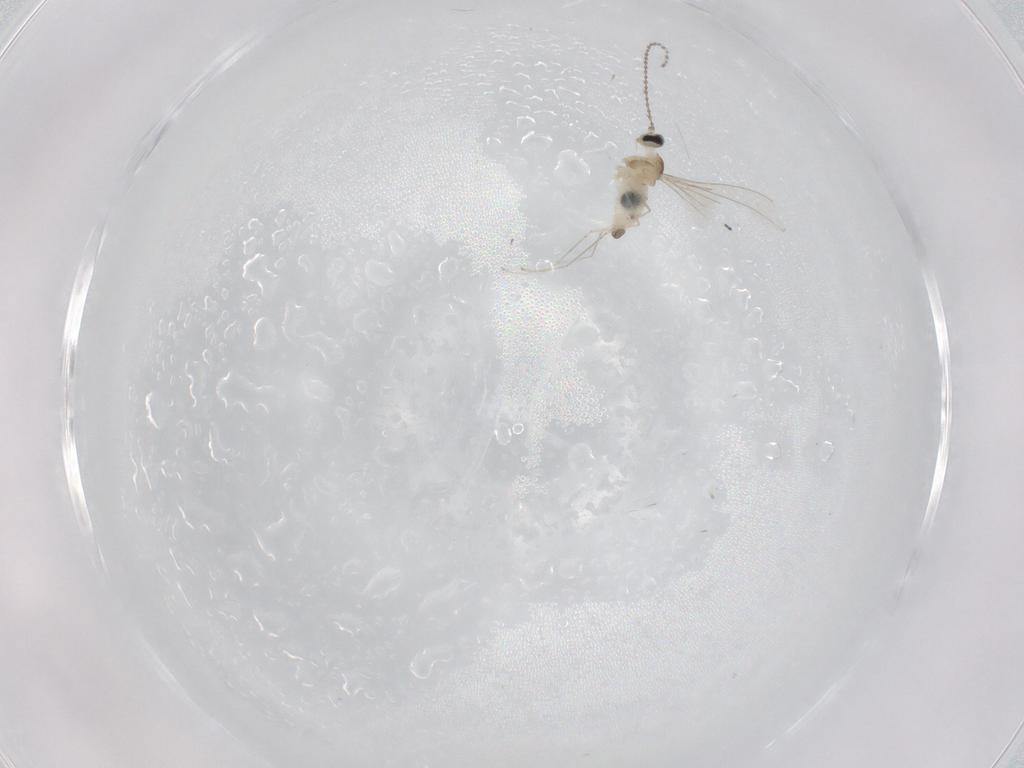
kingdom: Animalia
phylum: Arthropoda
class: Insecta
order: Diptera
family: Cecidomyiidae
